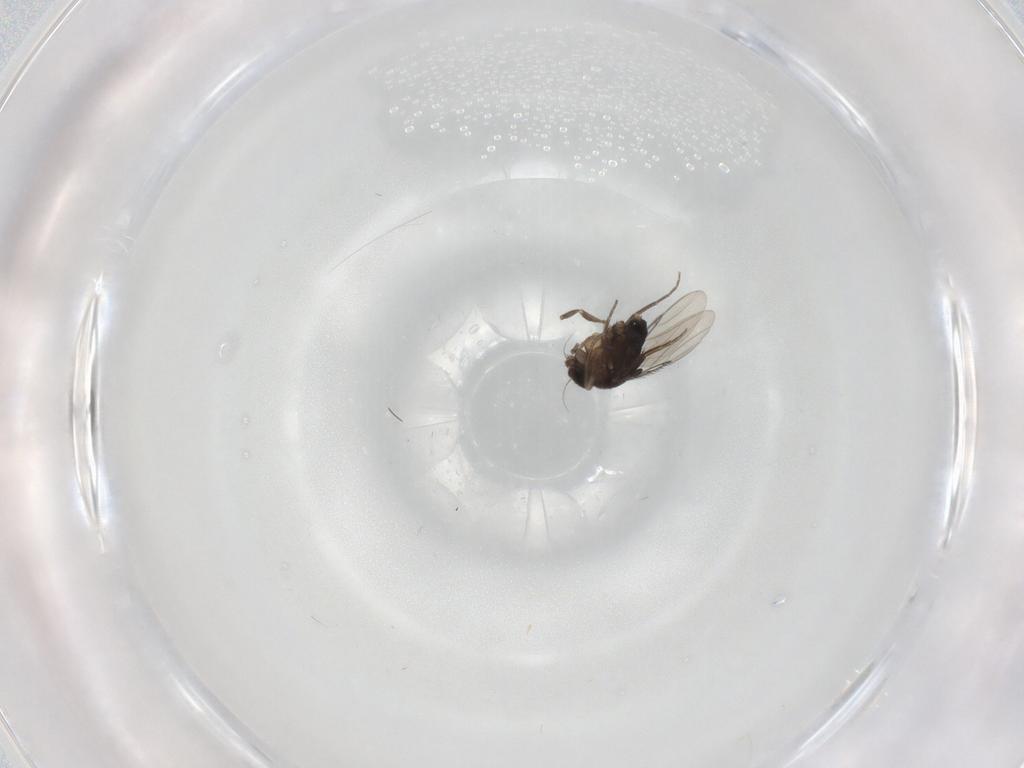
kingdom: Animalia
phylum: Arthropoda
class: Insecta
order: Diptera
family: Phoridae
